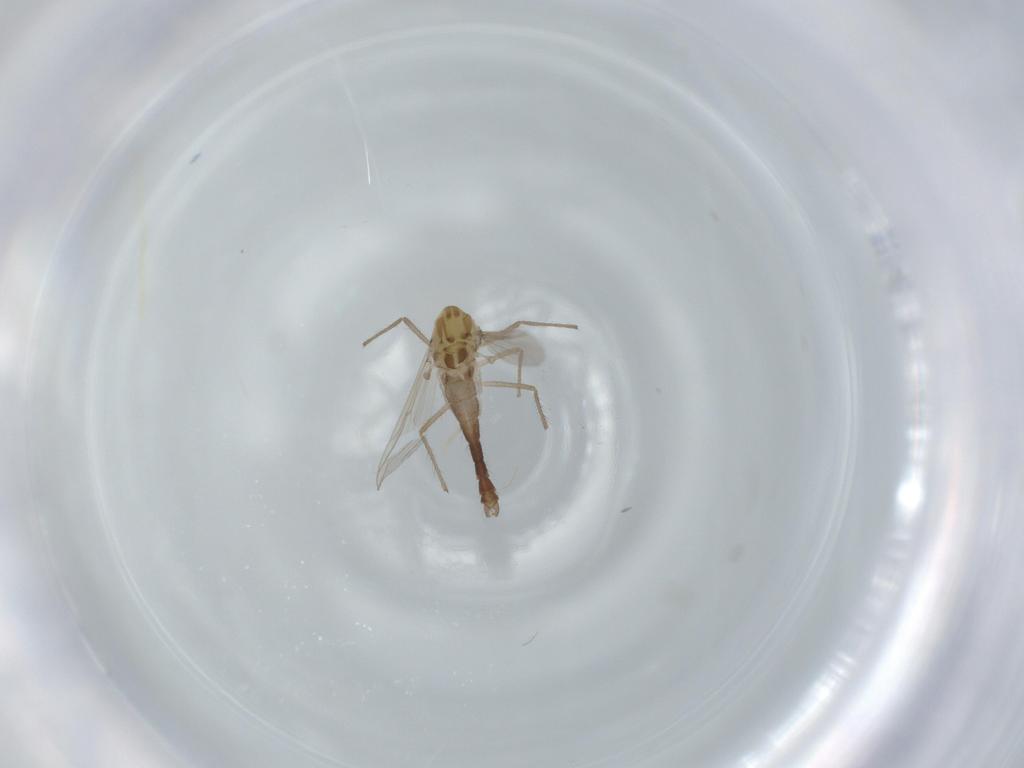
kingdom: Animalia
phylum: Arthropoda
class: Insecta
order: Diptera
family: Chironomidae
